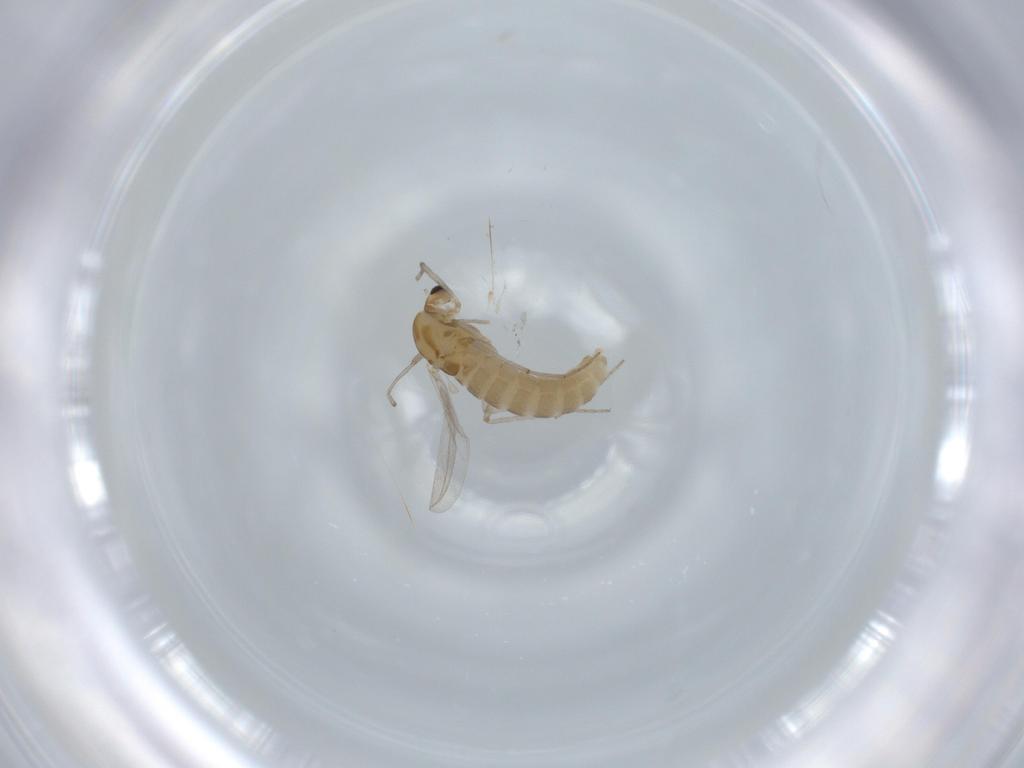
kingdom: Animalia
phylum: Arthropoda
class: Insecta
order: Diptera
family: Chironomidae
